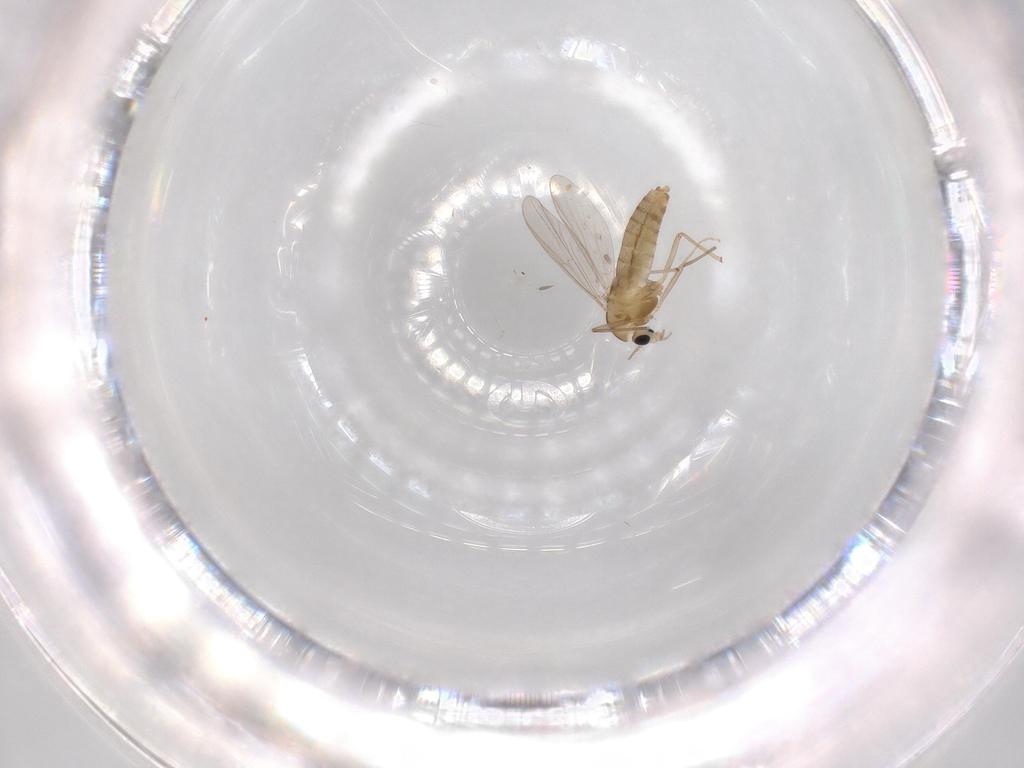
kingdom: Animalia
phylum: Arthropoda
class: Insecta
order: Diptera
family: Chironomidae
